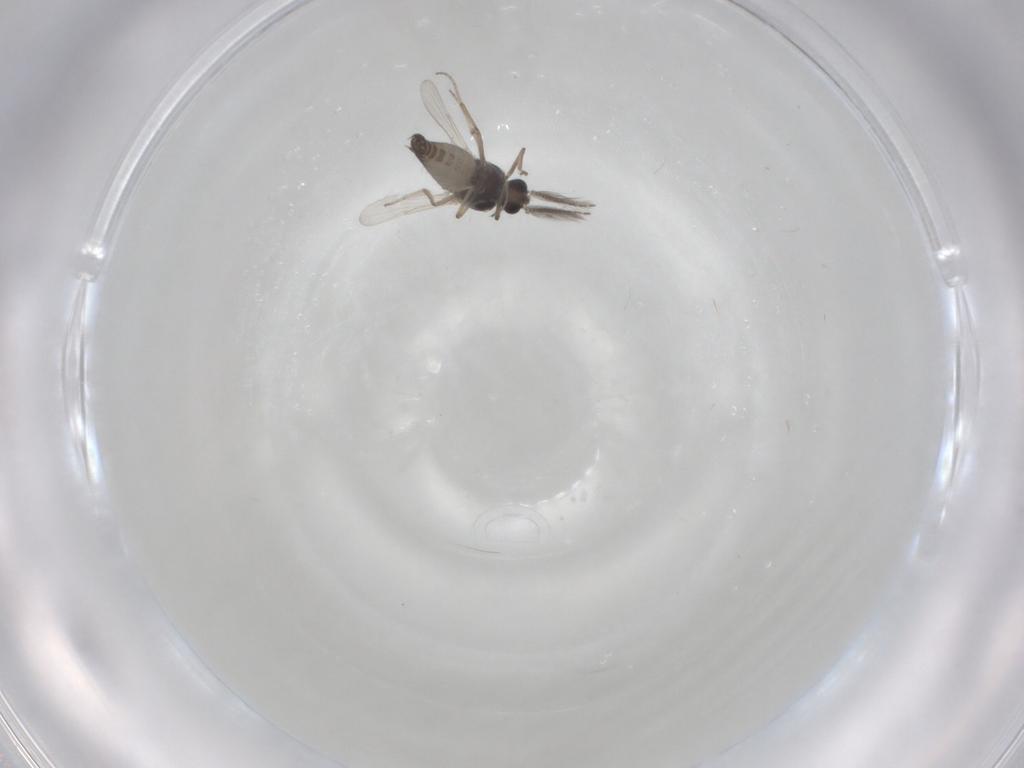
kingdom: Animalia
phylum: Arthropoda
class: Insecta
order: Diptera
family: Ceratopogonidae
